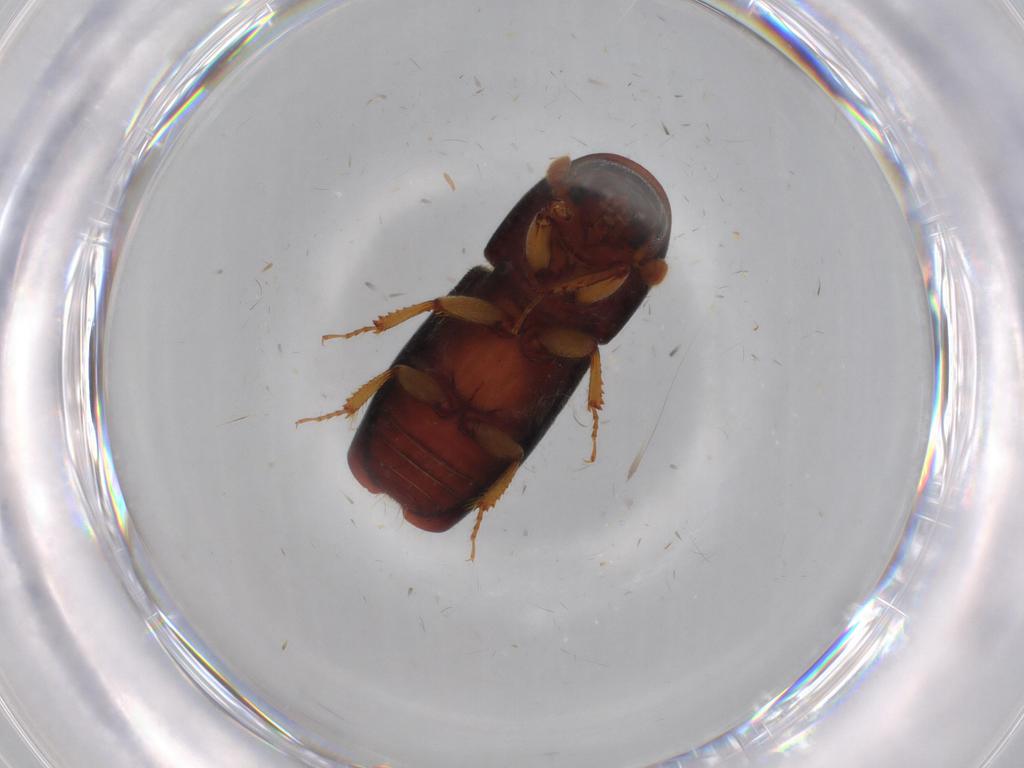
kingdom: Animalia
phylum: Arthropoda
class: Insecta
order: Coleoptera
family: Curculionidae
